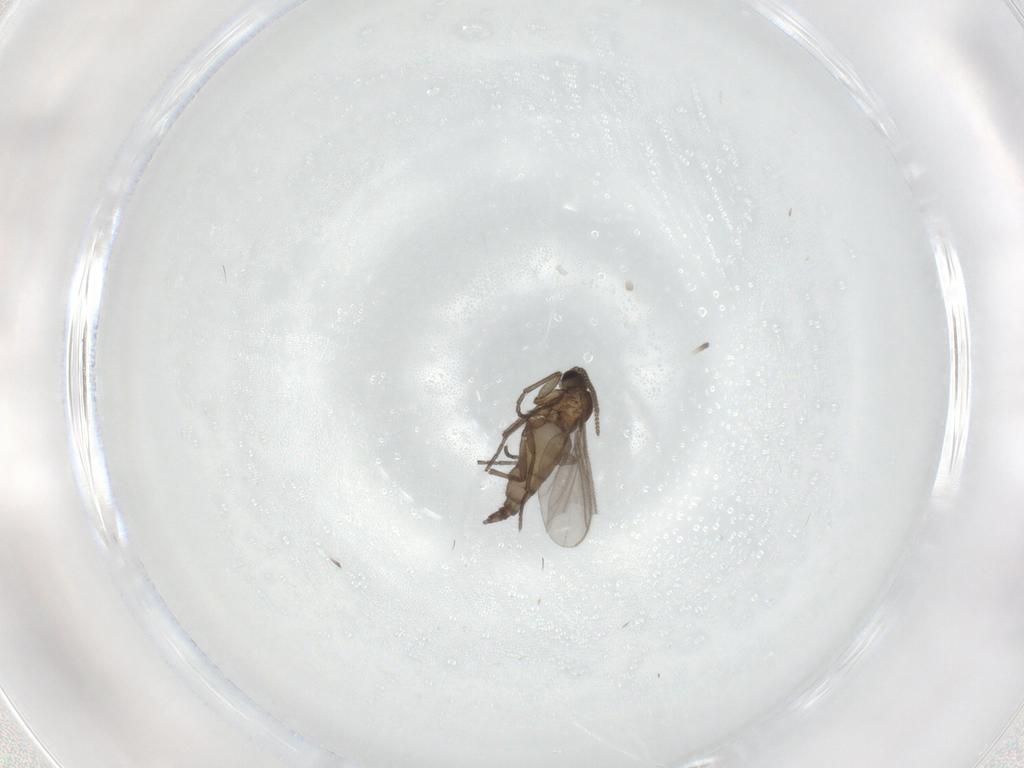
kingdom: Animalia
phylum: Arthropoda
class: Insecta
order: Diptera
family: Sciaridae
